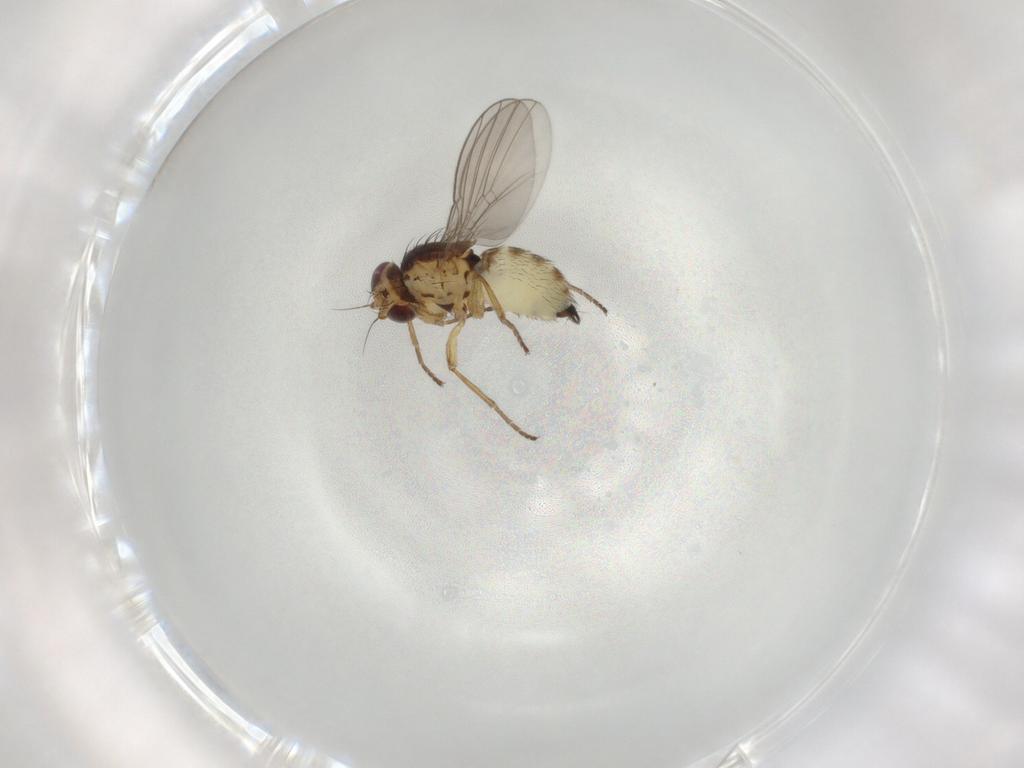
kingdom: Animalia
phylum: Arthropoda
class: Insecta
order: Diptera
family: Agromyzidae
